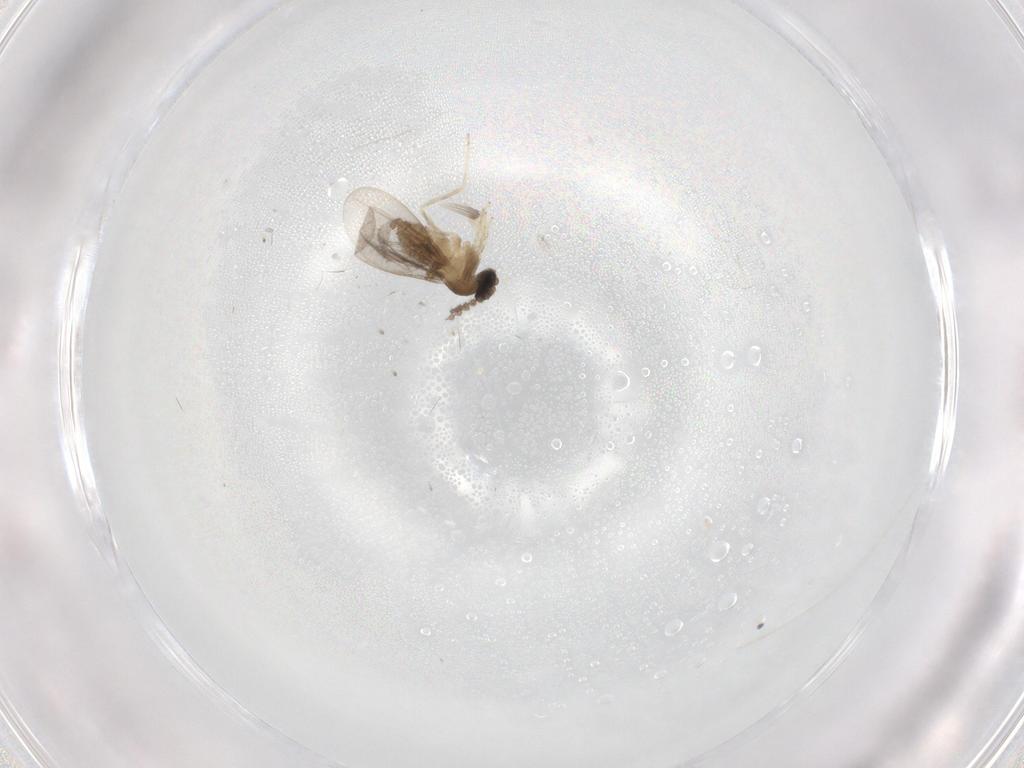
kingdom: Animalia
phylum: Arthropoda
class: Insecta
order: Diptera
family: Cecidomyiidae
